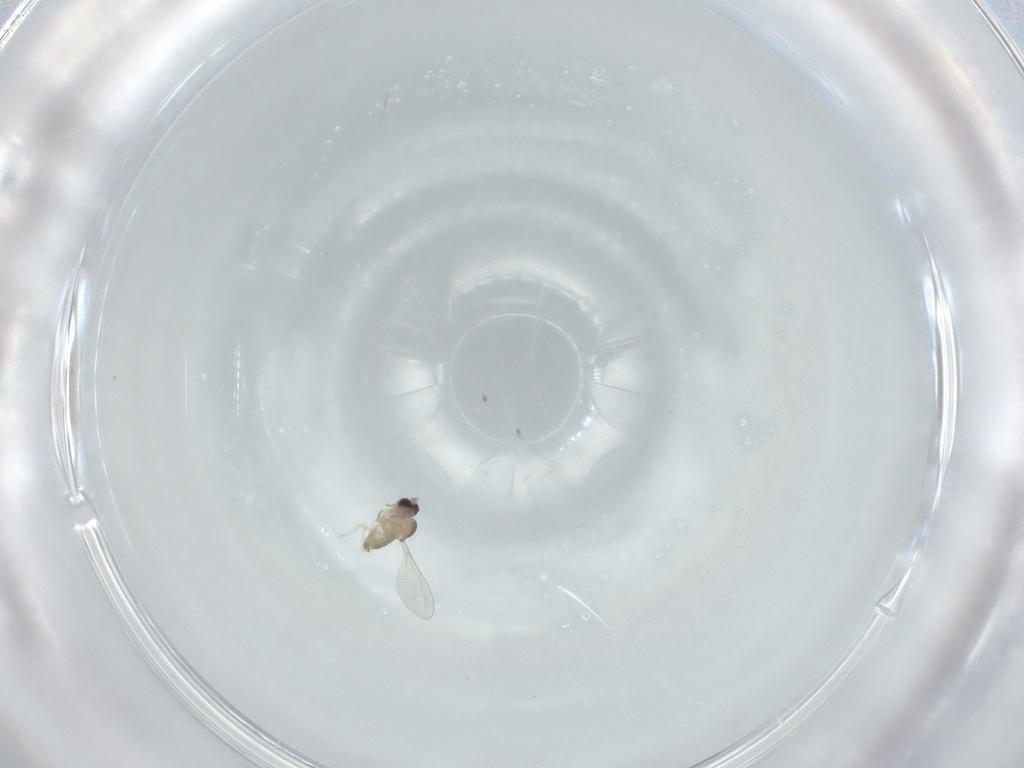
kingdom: Animalia
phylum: Arthropoda
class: Insecta
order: Diptera
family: Cecidomyiidae
